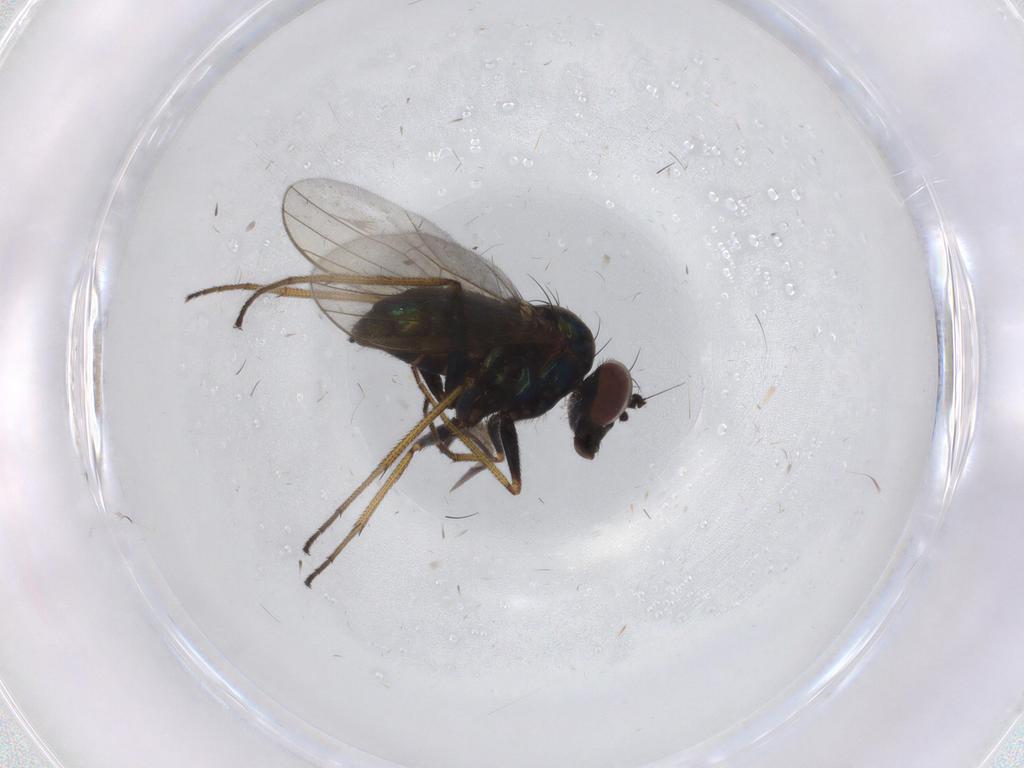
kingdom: Animalia
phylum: Arthropoda
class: Insecta
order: Diptera
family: Dolichopodidae
